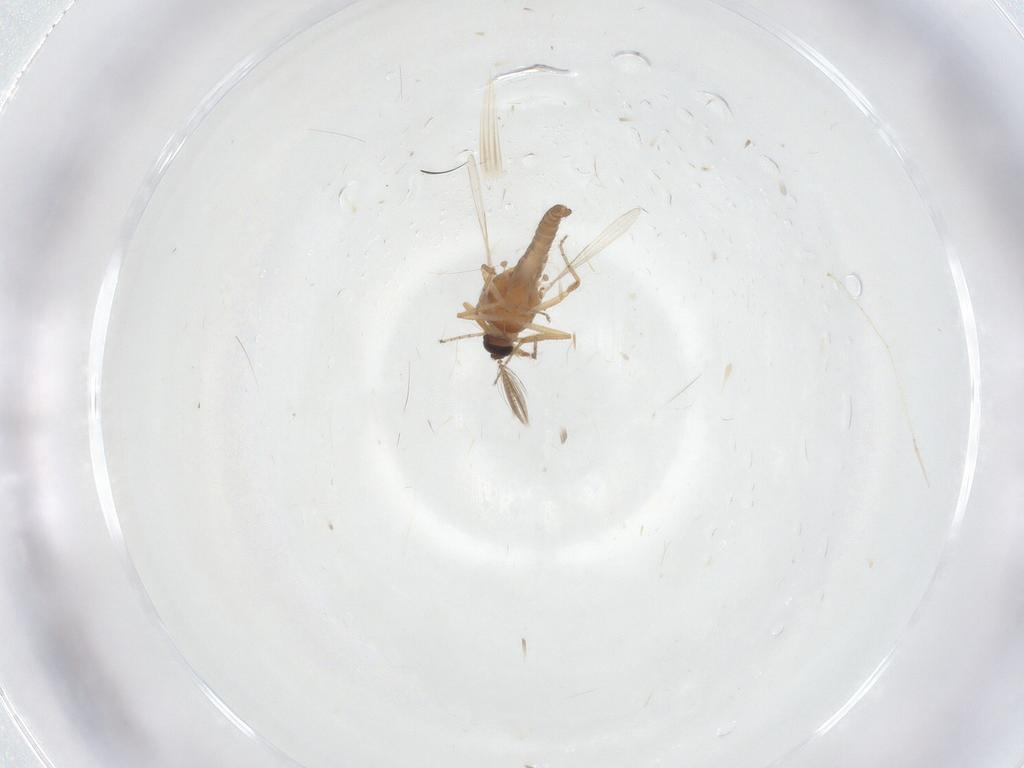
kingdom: Animalia
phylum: Arthropoda
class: Insecta
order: Diptera
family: Ceratopogonidae
